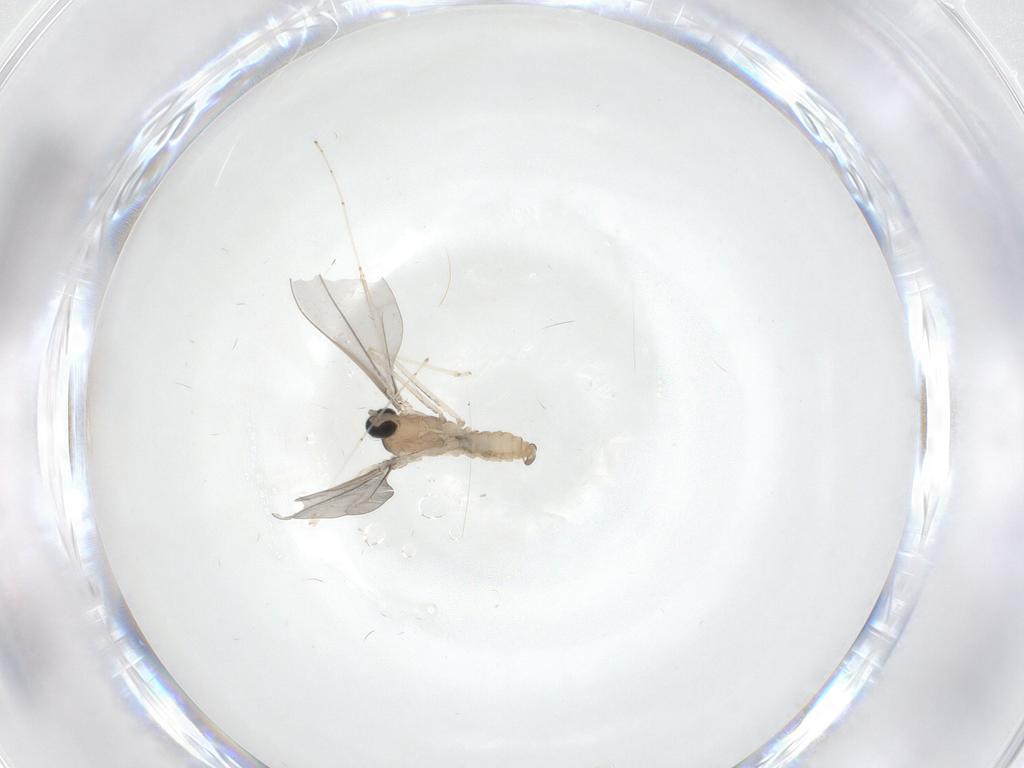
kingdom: Animalia
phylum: Arthropoda
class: Insecta
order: Diptera
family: Cecidomyiidae
